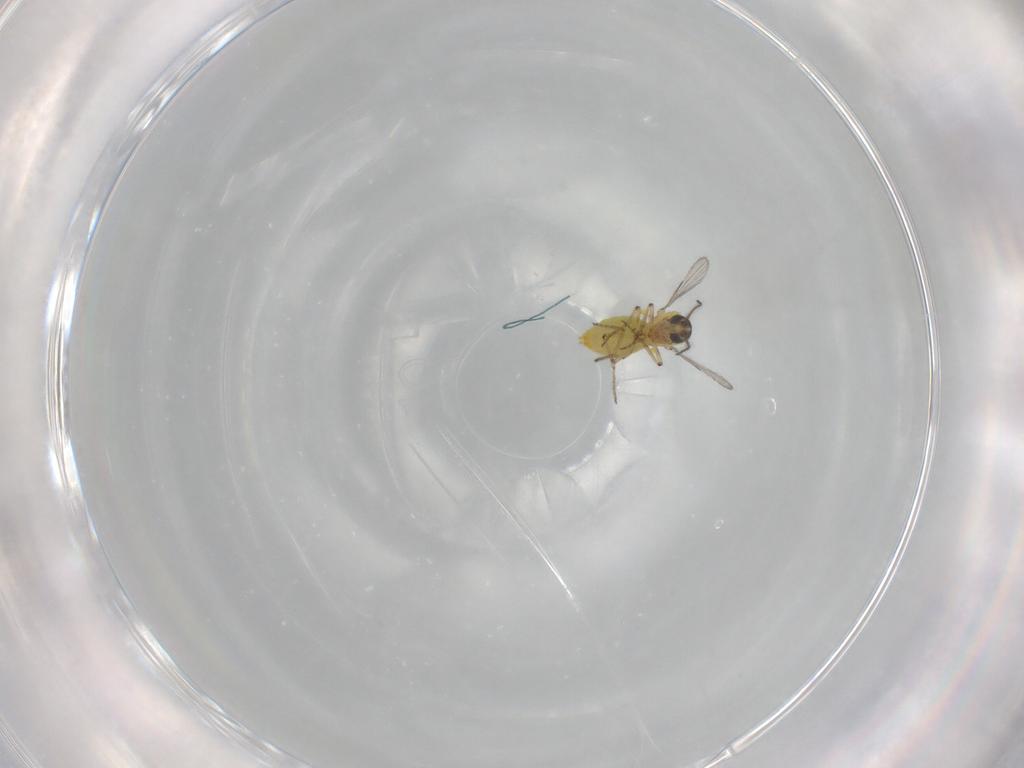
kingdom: Animalia
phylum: Arthropoda
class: Insecta
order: Diptera
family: Ceratopogonidae
